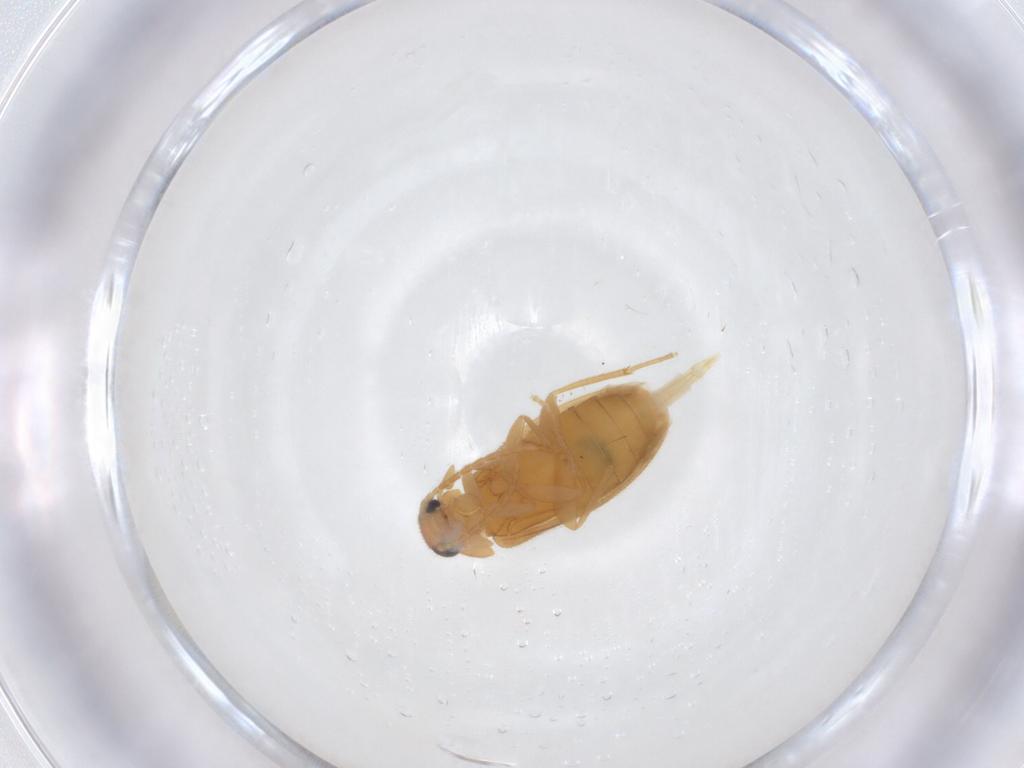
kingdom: Animalia
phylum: Arthropoda
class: Insecta
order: Coleoptera
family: Scraptiidae
